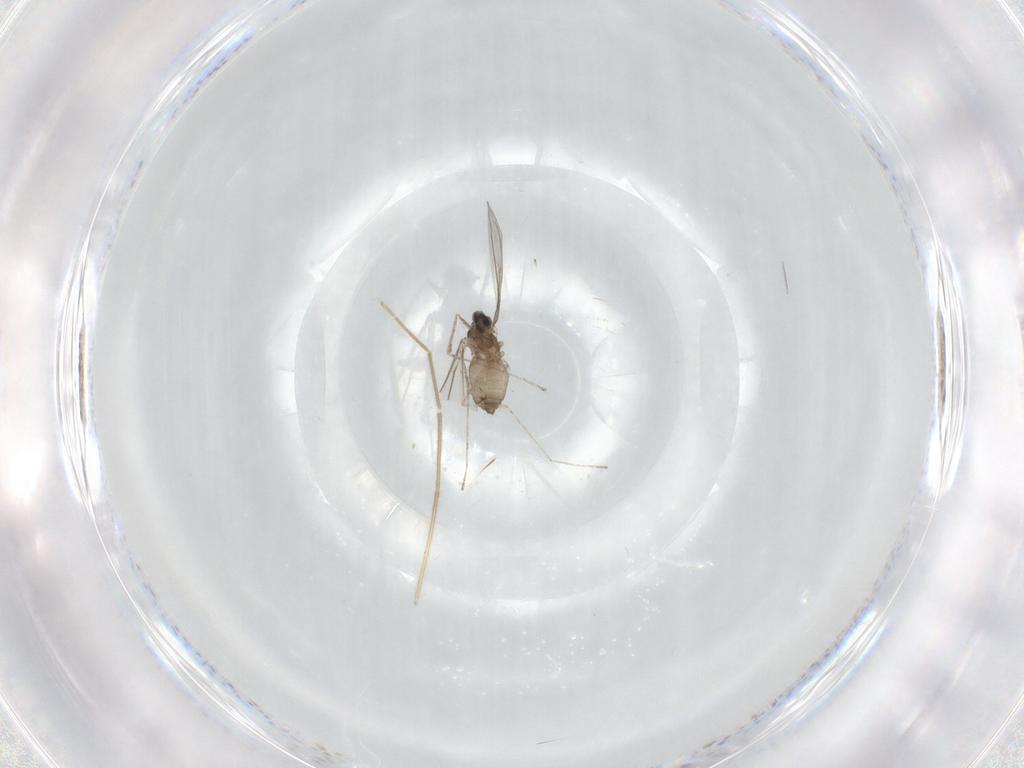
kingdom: Animalia
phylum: Arthropoda
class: Insecta
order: Diptera
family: Cecidomyiidae
